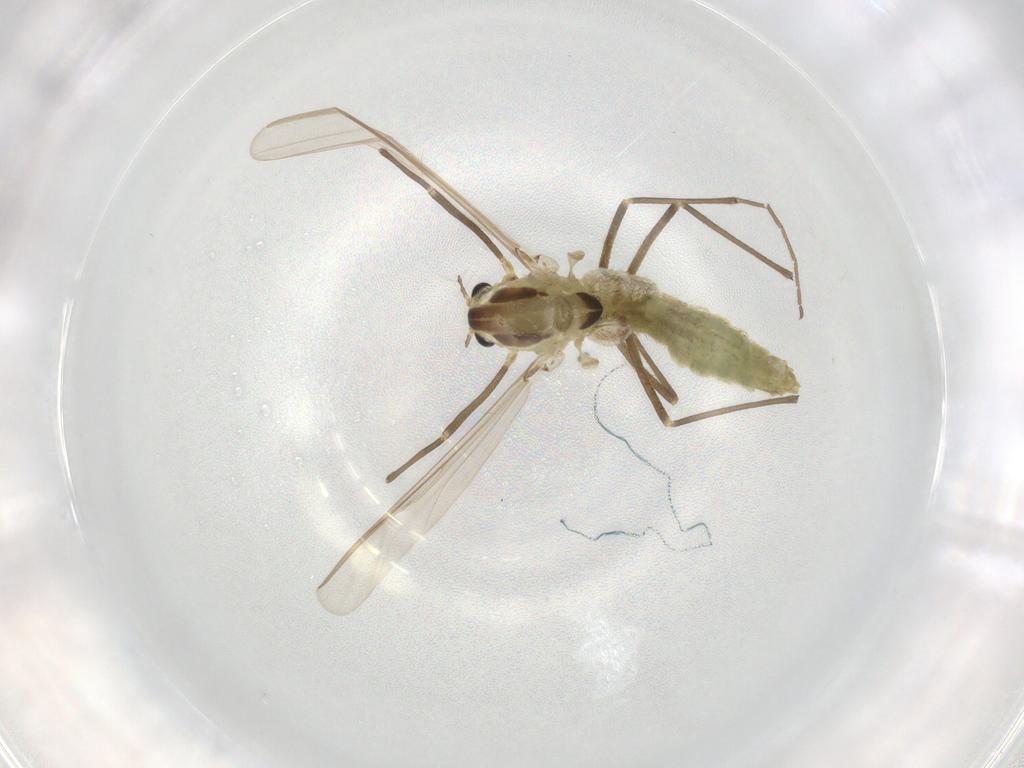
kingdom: Animalia
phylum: Arthropoda
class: Insecta
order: Diptera
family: Chironomidae
